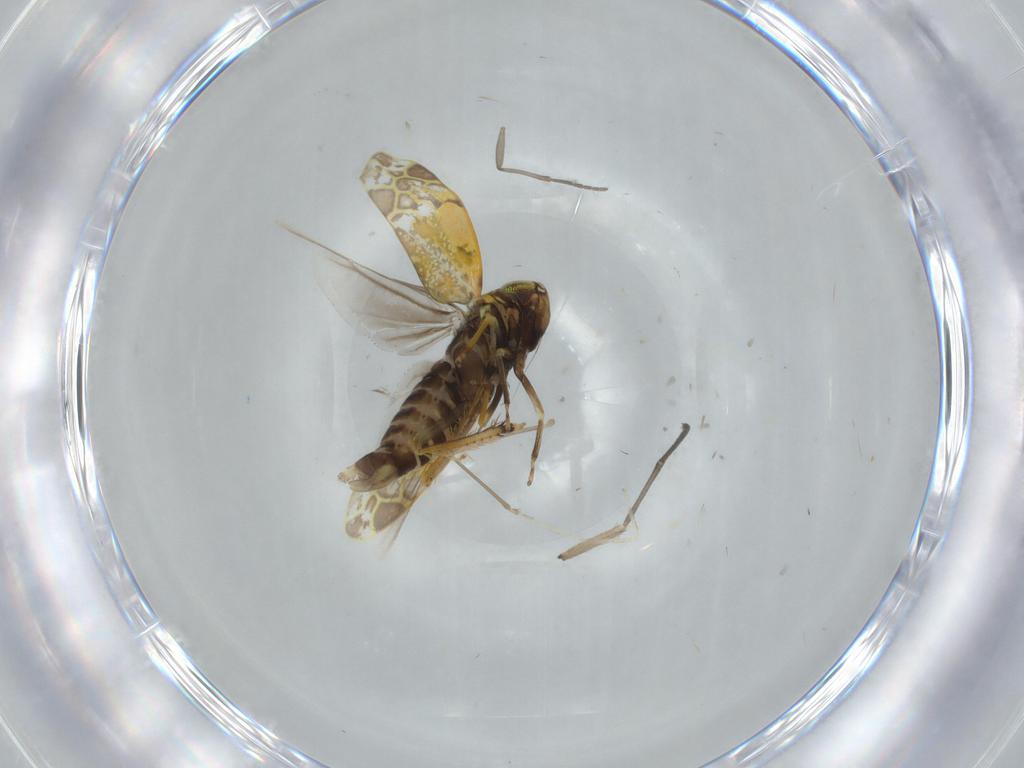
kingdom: Animalia
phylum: Arthropoda
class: Insecta
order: Hemiptera
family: Cicadellidae
